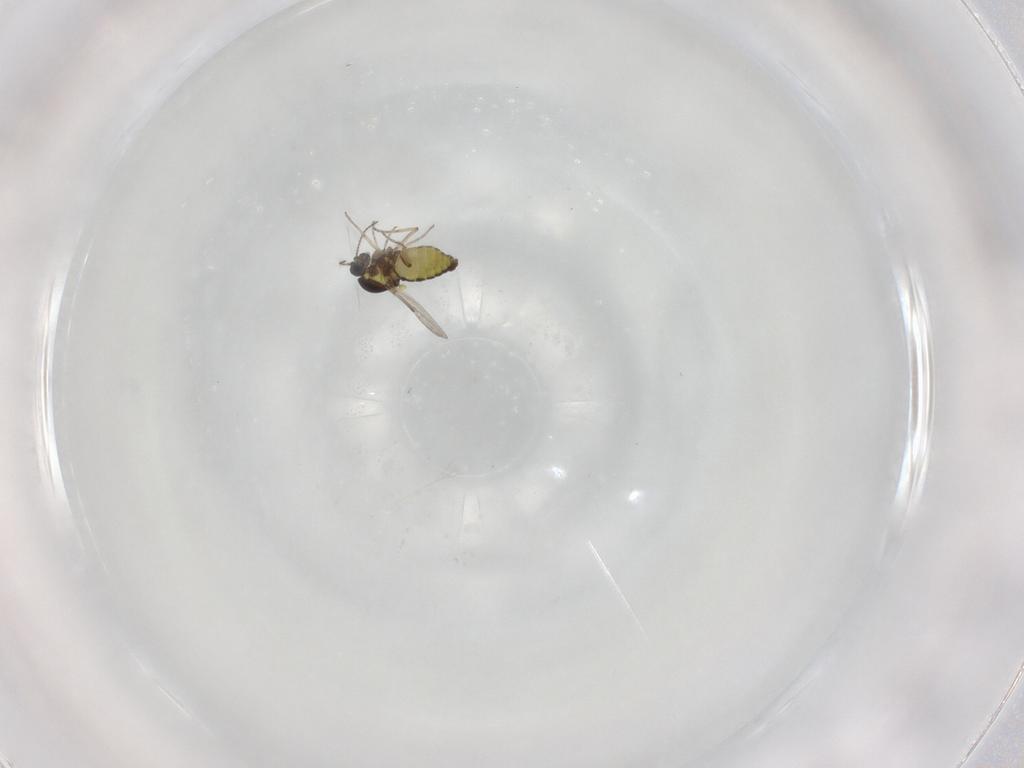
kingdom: Animalia
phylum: Arthropoda
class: Insecta
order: Diptera
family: Ceratopogonidae
